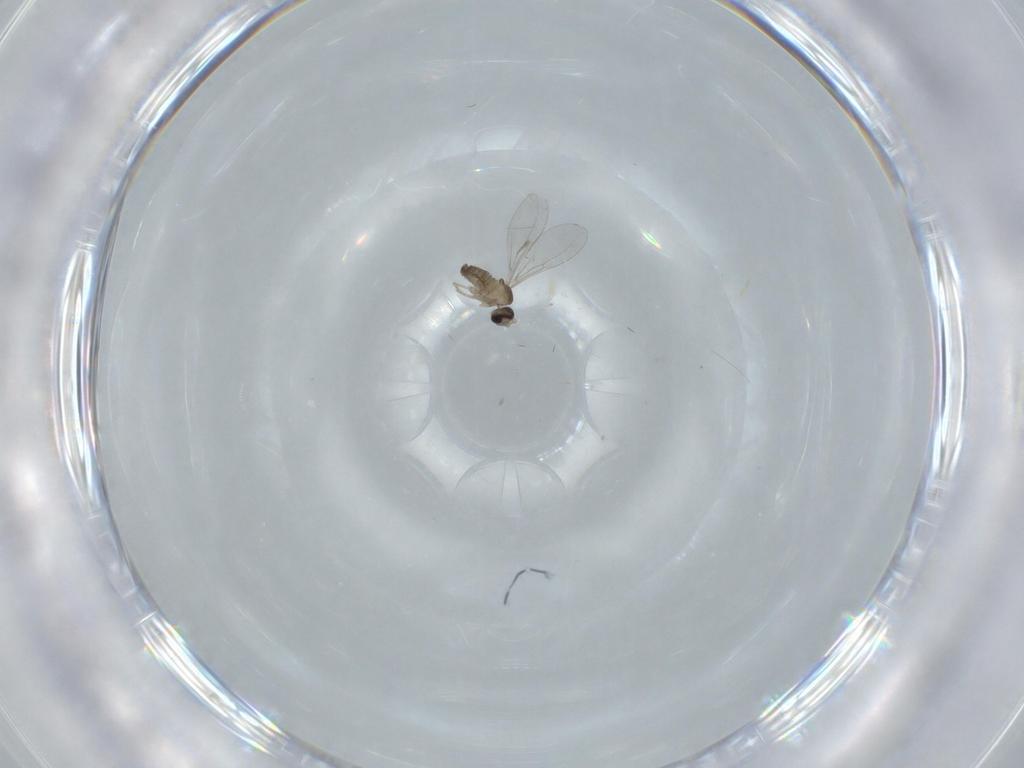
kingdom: Animalia
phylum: Arthropoda
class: Insecta
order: Diptera
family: Cecidomyiidae
